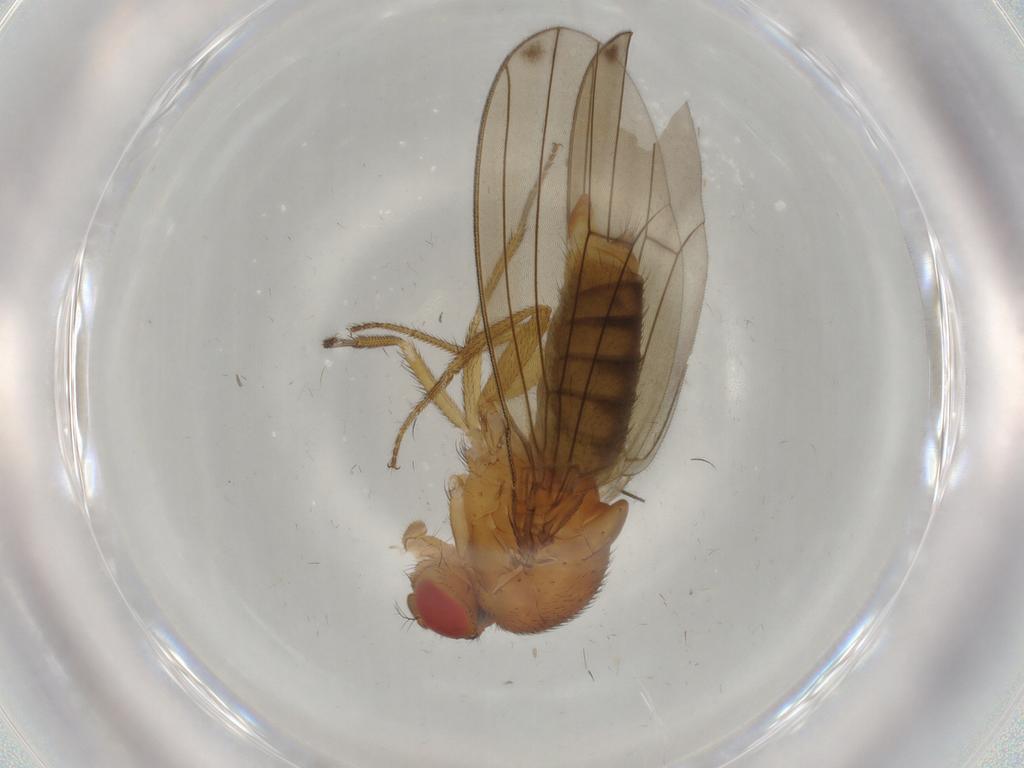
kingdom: Animalia
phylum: Arthropoda
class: Insecta
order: Diptera
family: Drosophilidae
